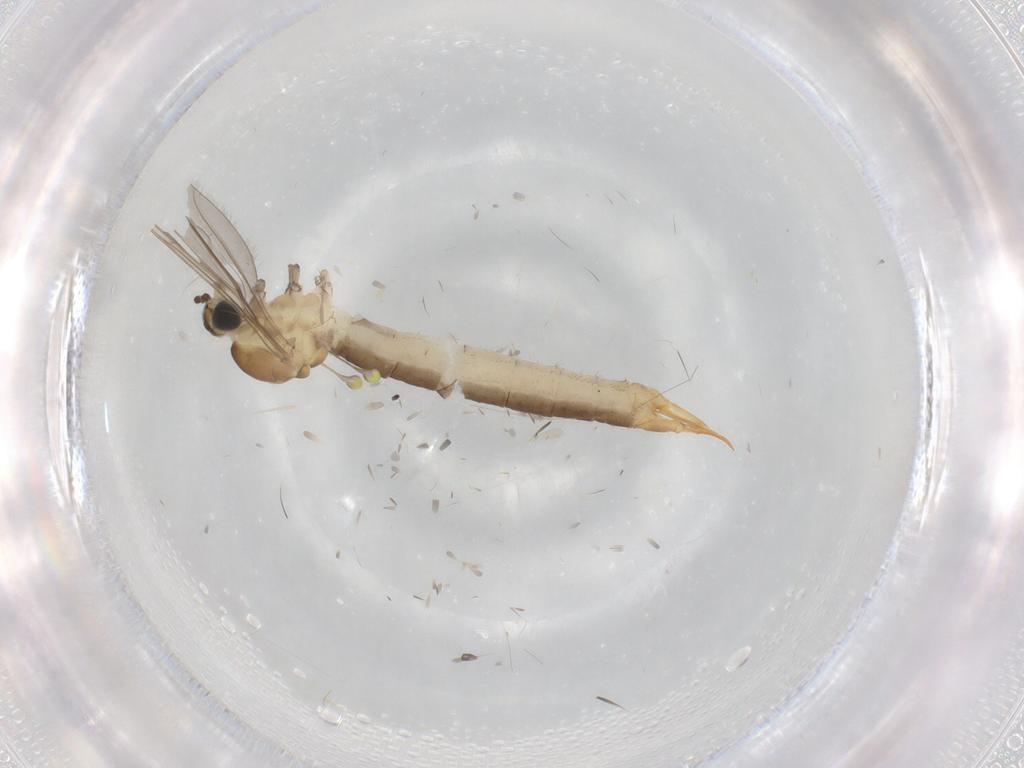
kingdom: Animalia
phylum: Arthropoda
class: Insecta
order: Diptera
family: Limoniidae
